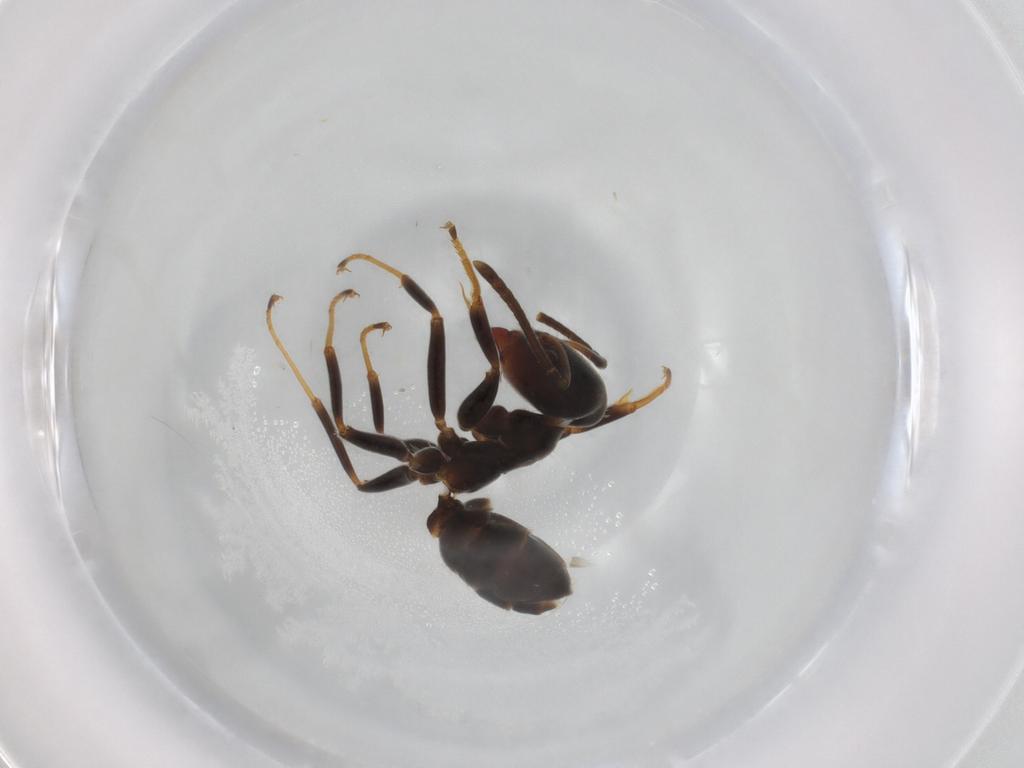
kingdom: Animalia
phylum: Arthropoda
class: Insecta
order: Hymenoptera
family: Formicidae
